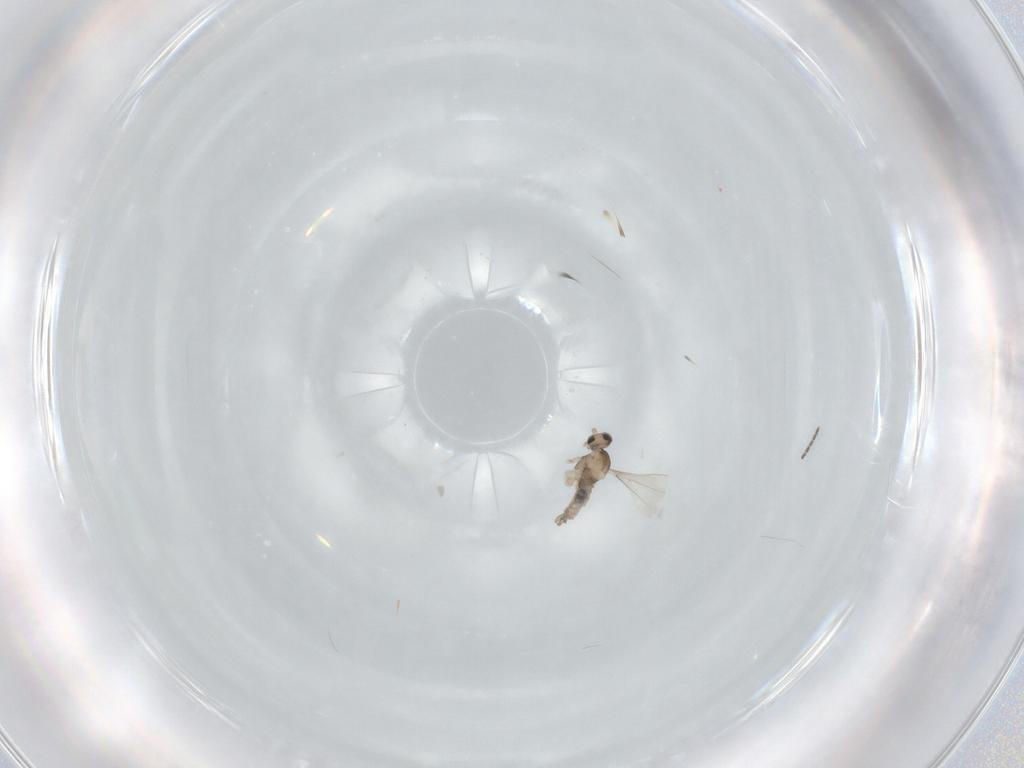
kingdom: Animalia
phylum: Arthropoda
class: Insecta
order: Diptera
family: Cecidomyiidae
